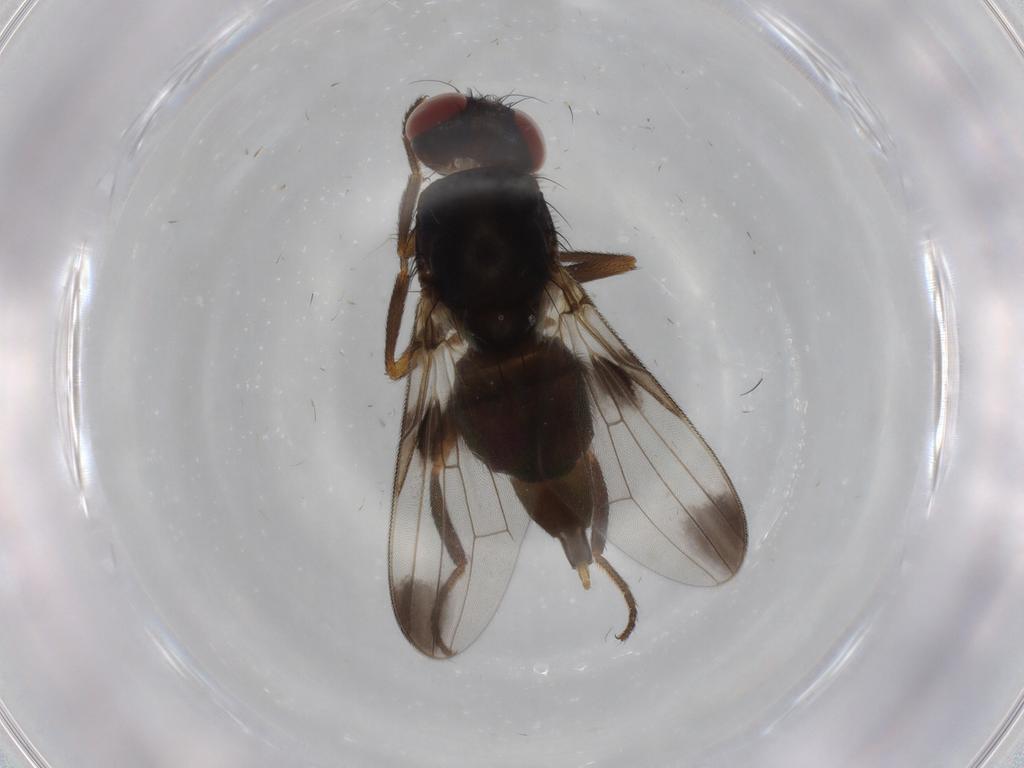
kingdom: Animalia
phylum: Arthropoda
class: Insecta
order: Diptera
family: Ulidiidae
